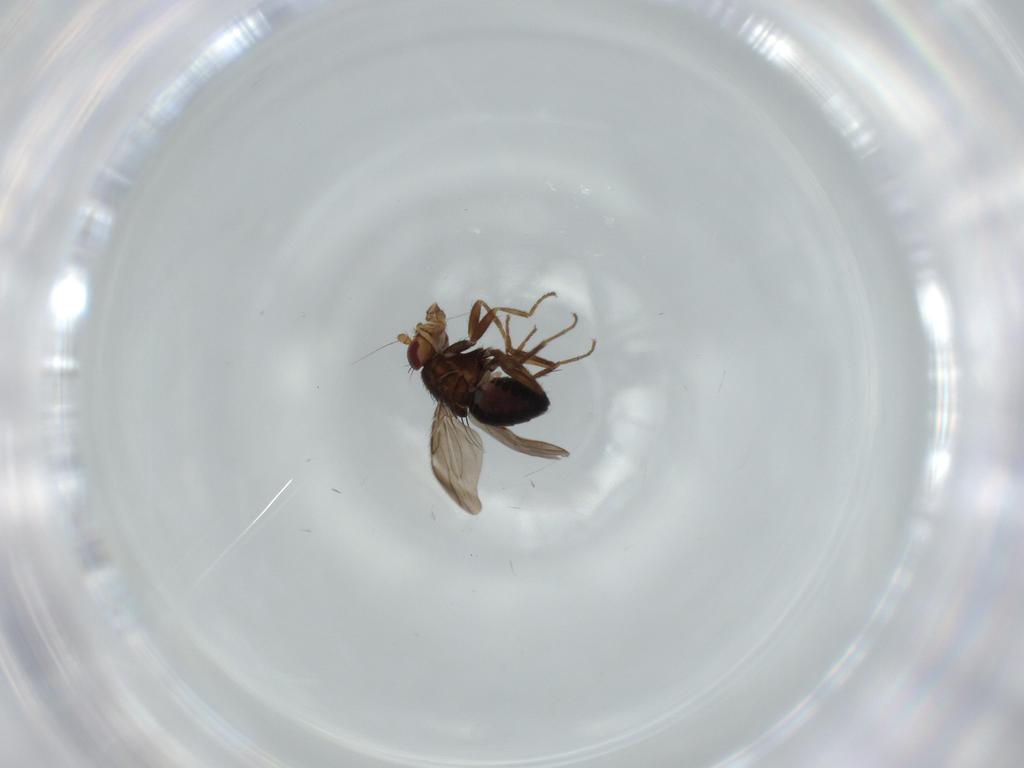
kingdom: Animalia
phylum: Arthropoda
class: Insecta
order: Diptera
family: Sphaeroceridae
